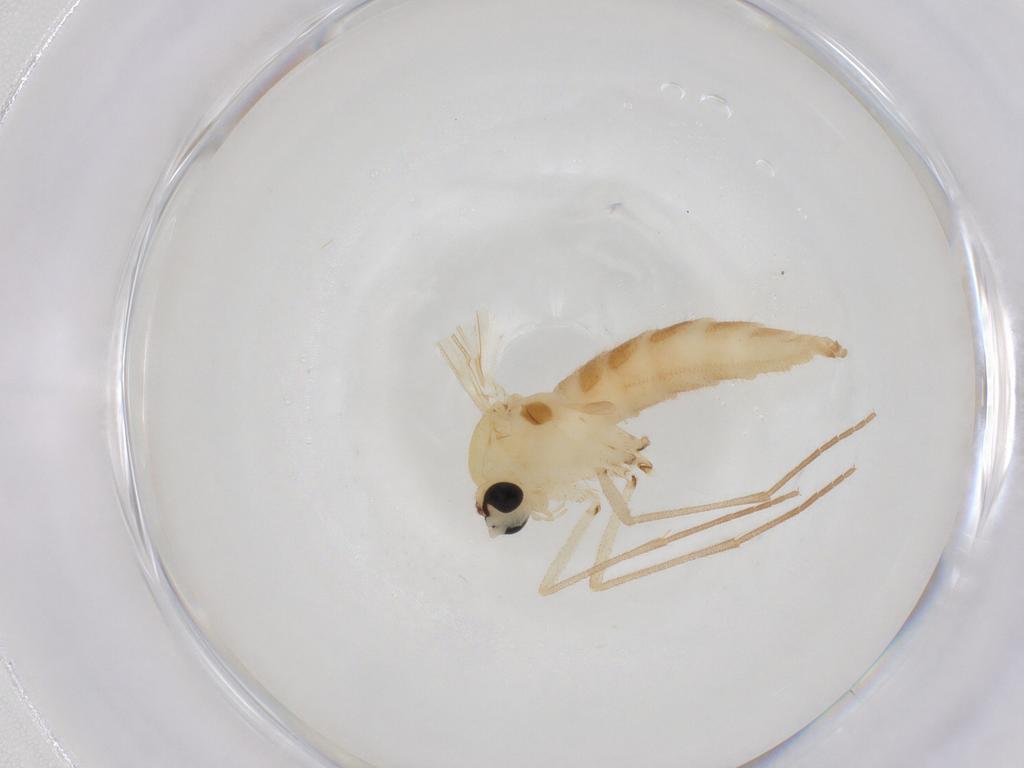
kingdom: Animalia
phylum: Arthropoda
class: Insecta
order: Diptera
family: Sciaridae
